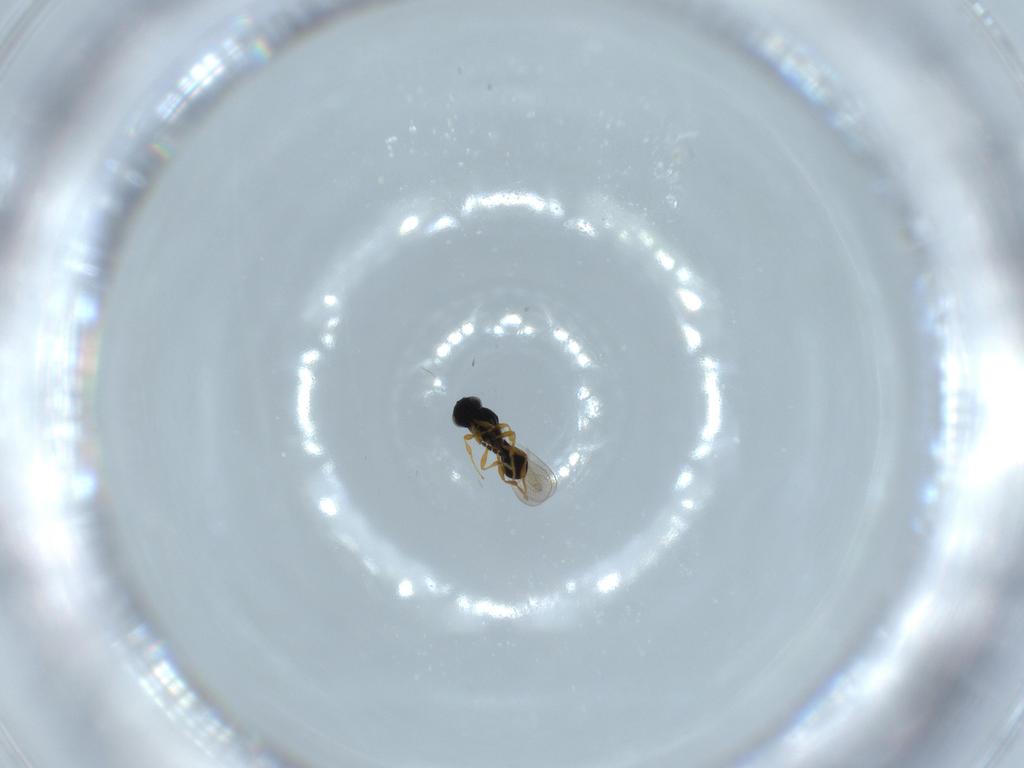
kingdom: Animalia
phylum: Arthropoda
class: Insecta
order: Hymenoptera
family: Platygastridae
